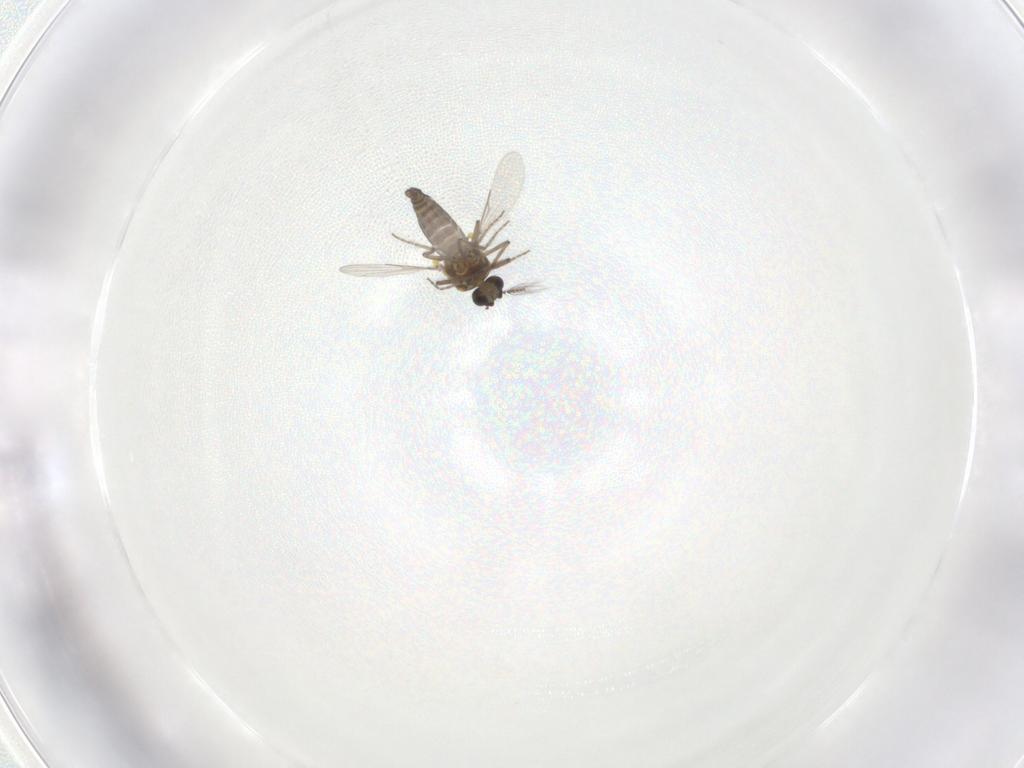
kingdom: Animalia
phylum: Arthropoda
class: Insecta
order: Diptera
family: Ceratopogonidae
